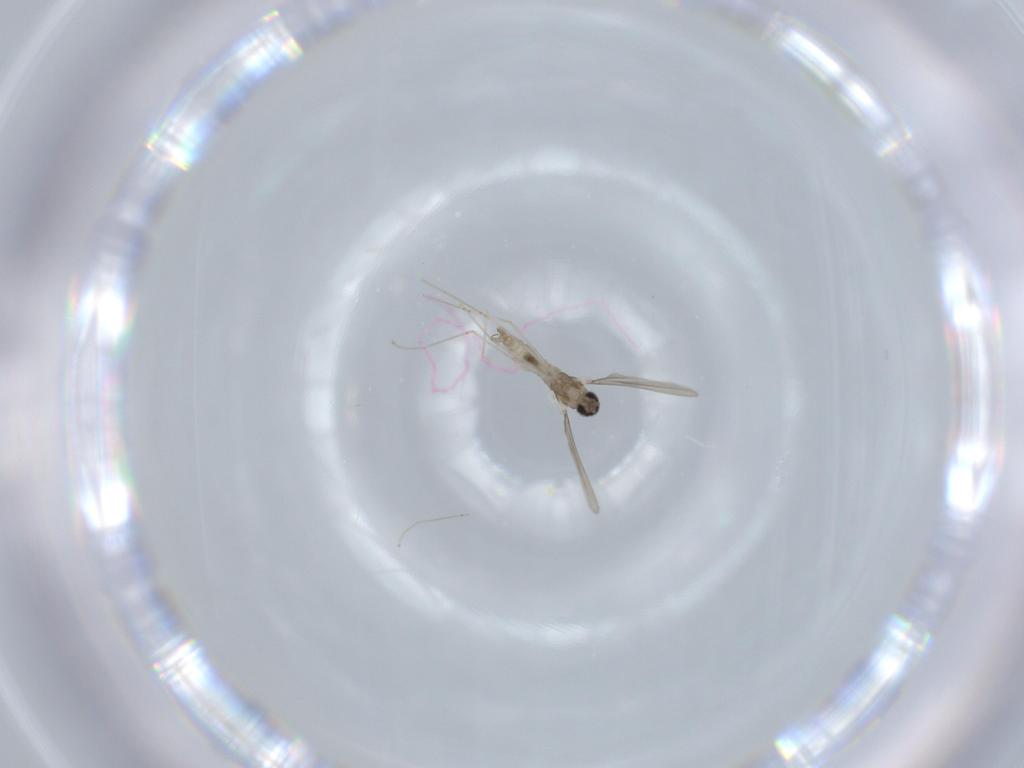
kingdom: Animalia
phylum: Arthropoda
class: Insecta
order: Diptera
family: Cecidomyiidae
